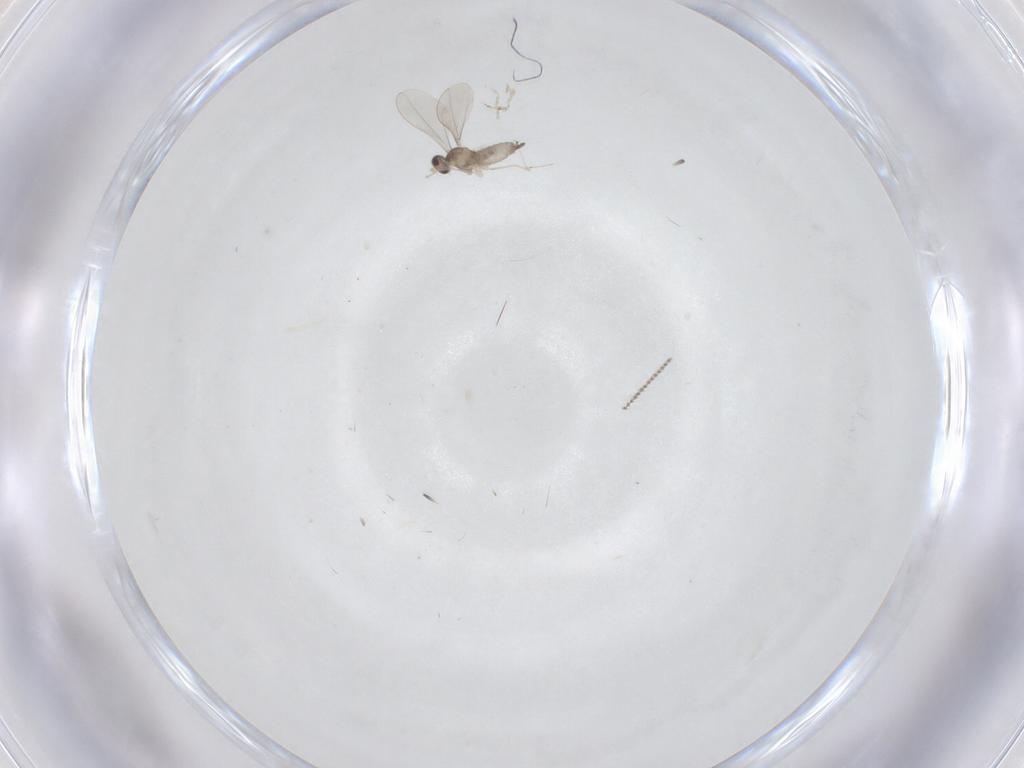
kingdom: Animalia
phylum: Arthropoda
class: Insecta
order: Diptera
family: Cecidomyiidae
